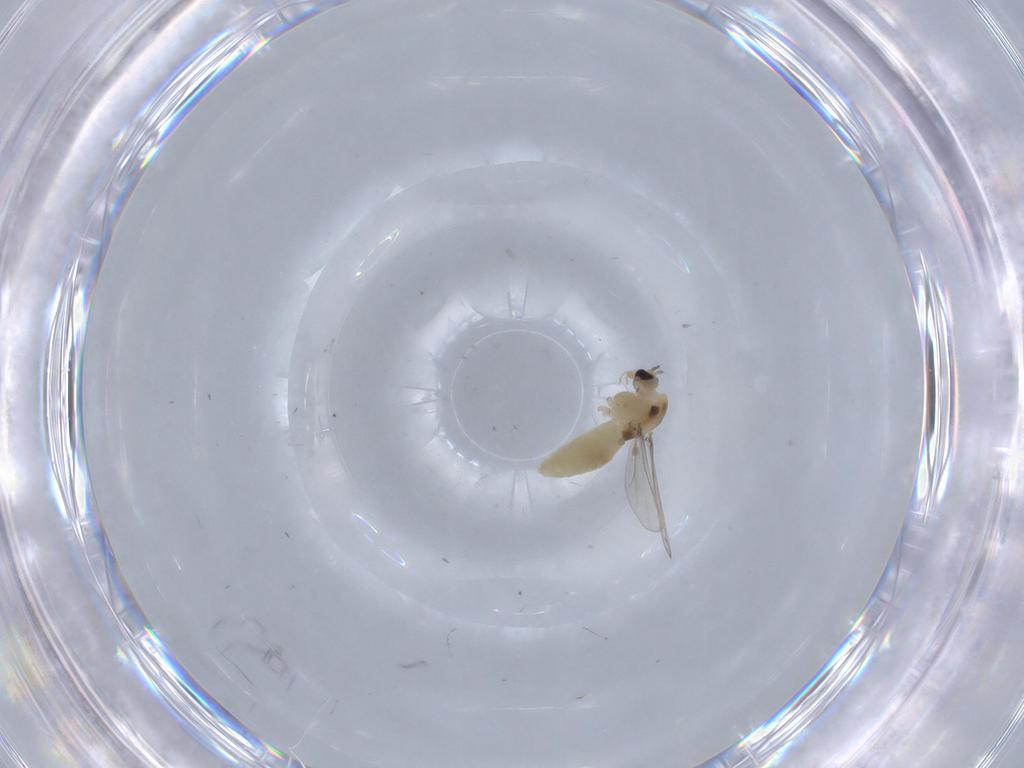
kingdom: Animalia
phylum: Arthropoda
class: Insecta
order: Diptera
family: Chironomidae
